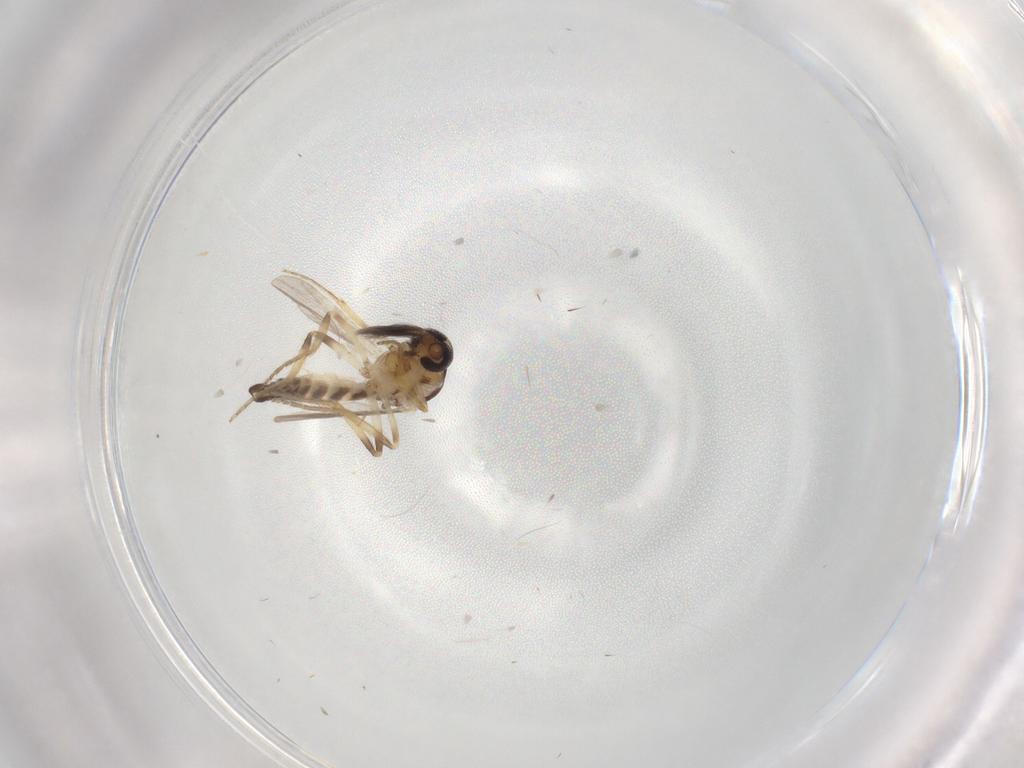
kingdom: Animalia
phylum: Arthropoda
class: Insecta
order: Diptera
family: Ceratopogonidae
